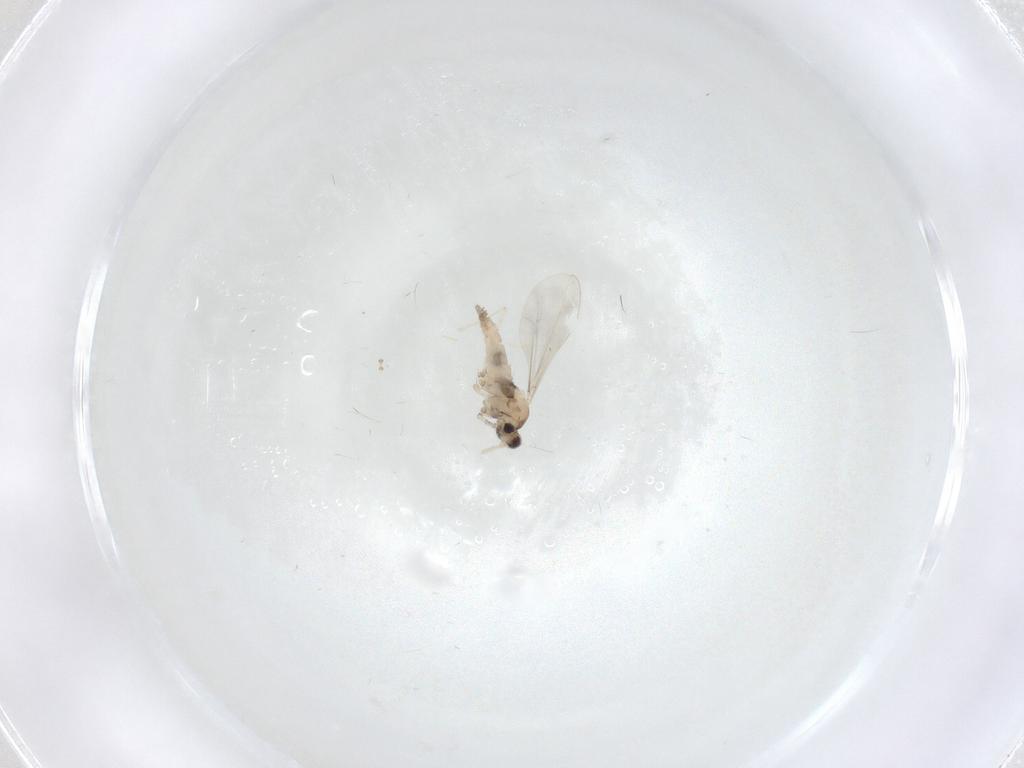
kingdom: Animalia
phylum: Arthropoda
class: Insecta
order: Diptera
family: Cecidomyiidae
